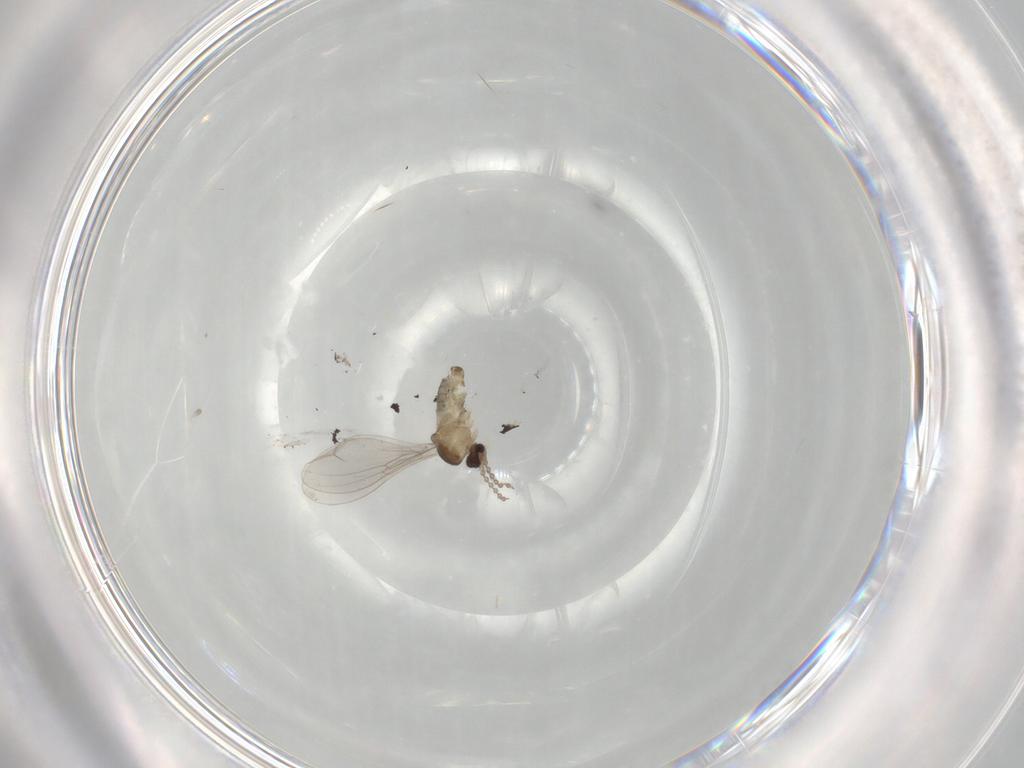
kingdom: Animalia
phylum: Arthropoda
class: Insecta
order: Diptera
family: Cecidomyiidae
